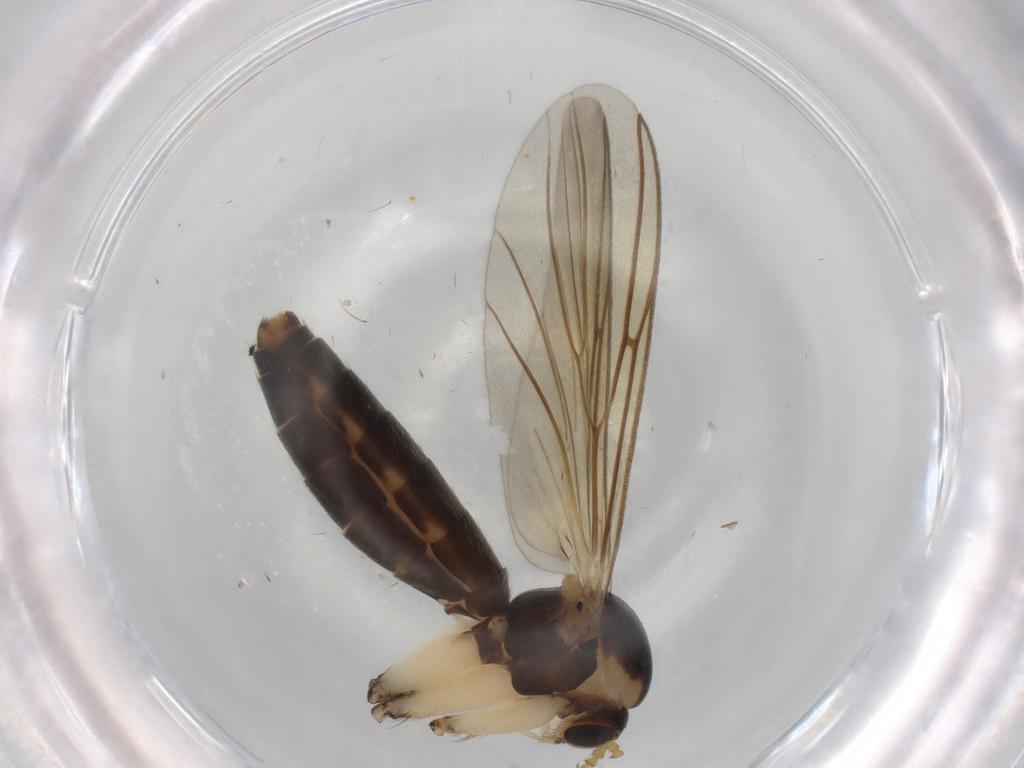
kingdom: Animalia
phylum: Arthropoda
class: Insecta
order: Diptera
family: Mycetophilidae
